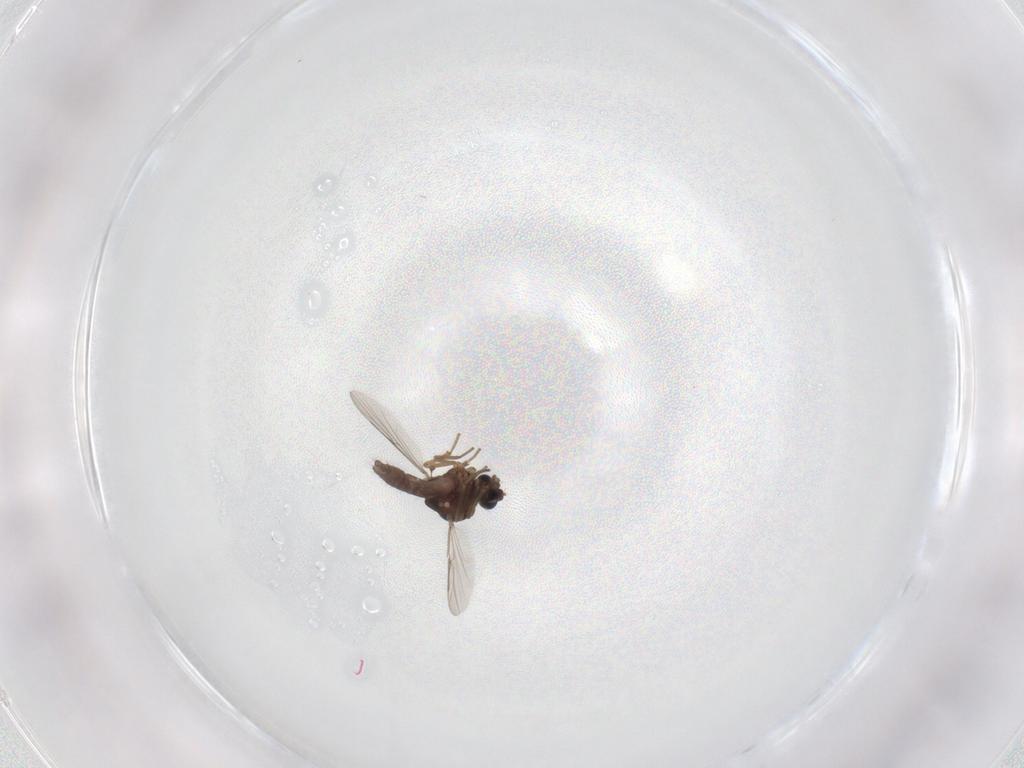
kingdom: Animalia
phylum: Arthropoda
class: Insecta
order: Diptera
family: Ceratopogonidae
